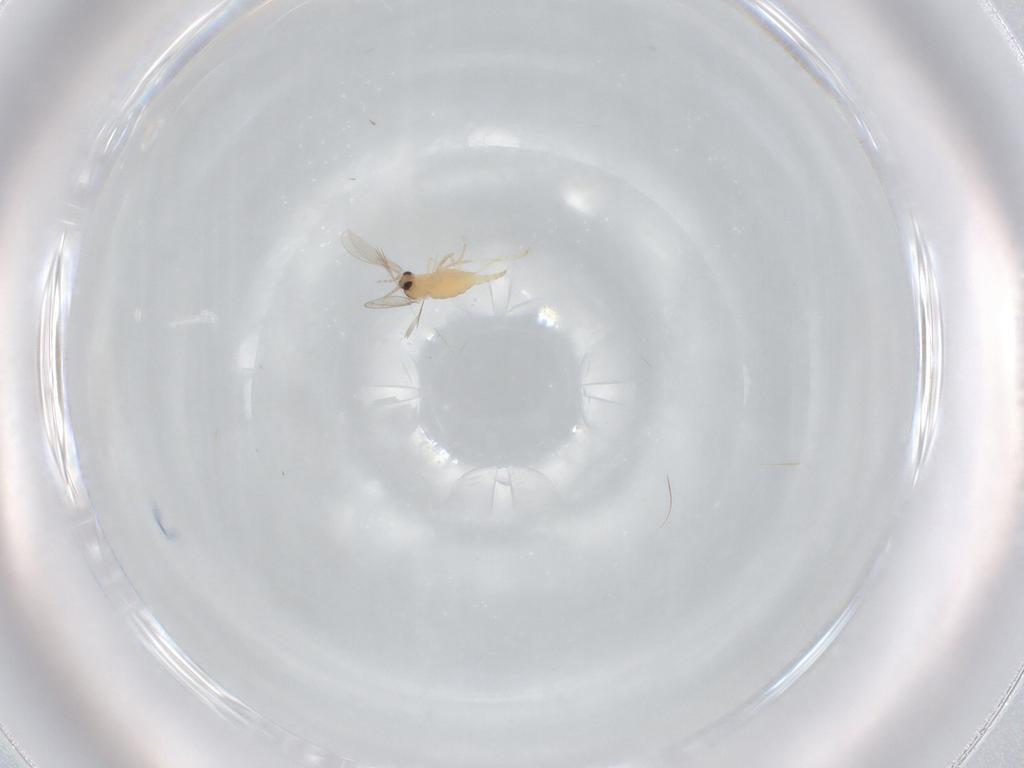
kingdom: Animalia
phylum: Arthropoda
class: Insecta
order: Diptera
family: Cecidomyiidae
